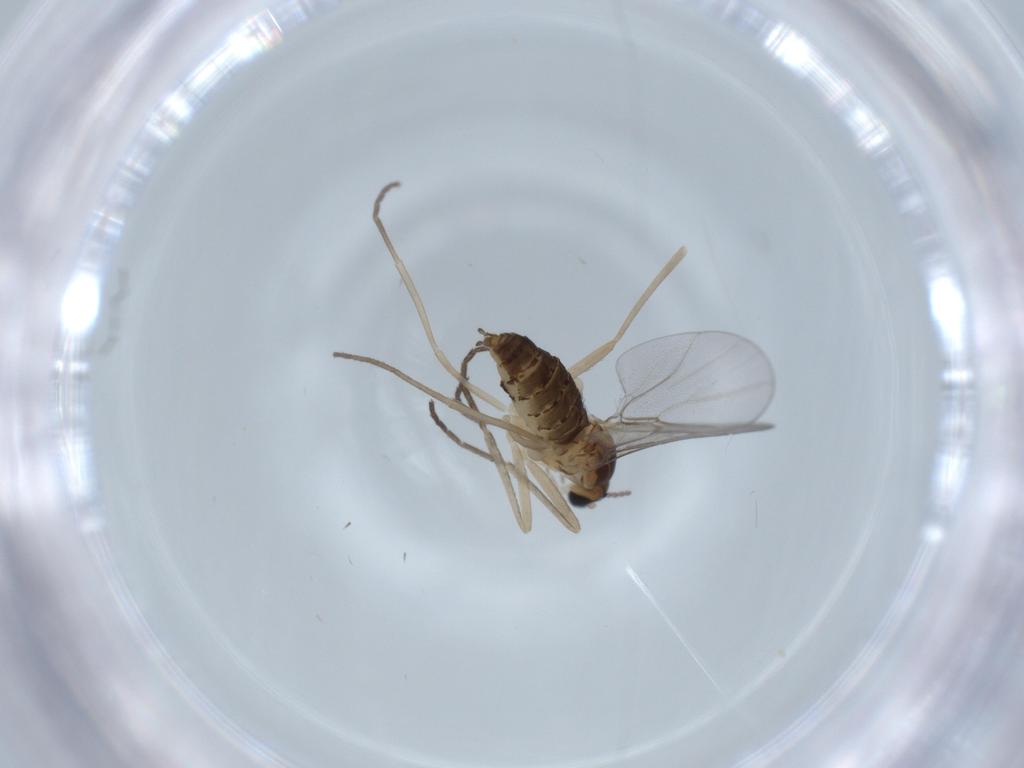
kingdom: Animalia
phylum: Arthropoda
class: Insecta
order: Diptera
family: Cecidomyiidae
